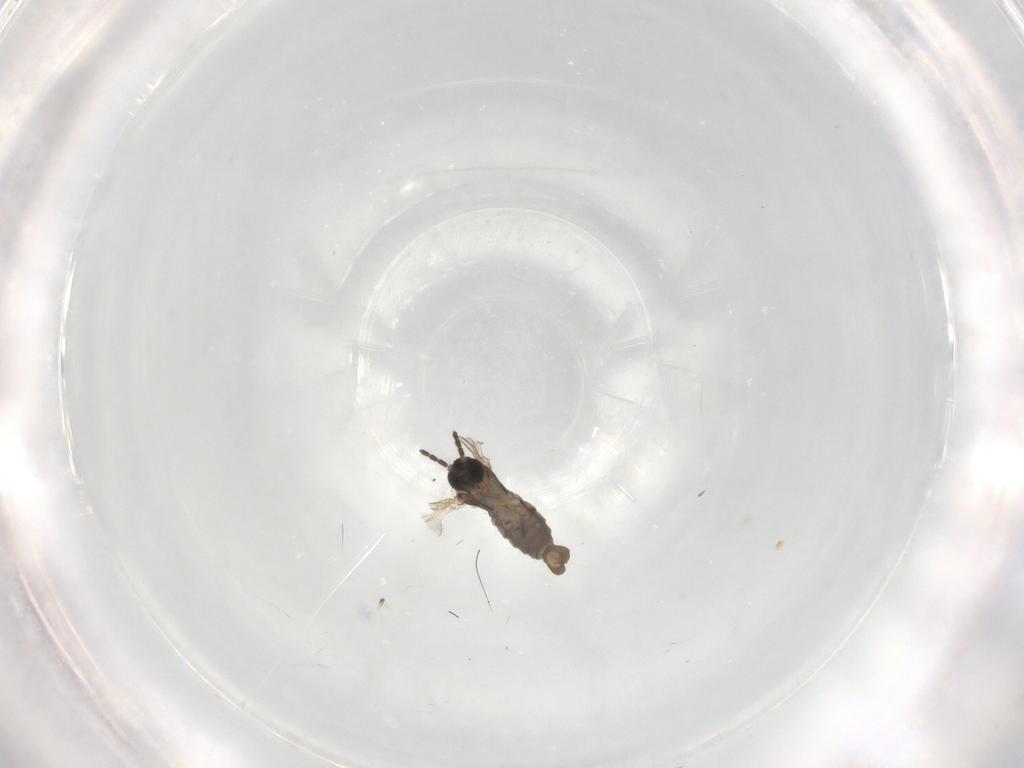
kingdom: Animalia
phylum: Arthropoda
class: Insecta
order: Diptera
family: Sciaridae
